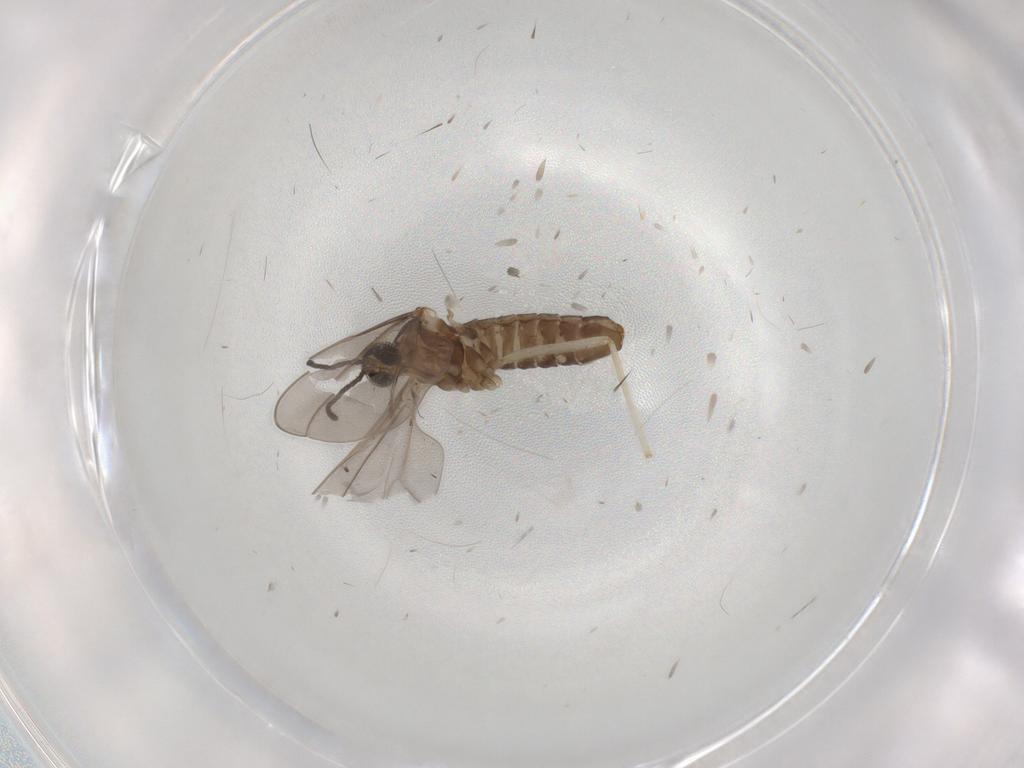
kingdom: Animalia
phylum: Arthropoda
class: Insecta
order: Diptera
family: Cecidomyiidae
